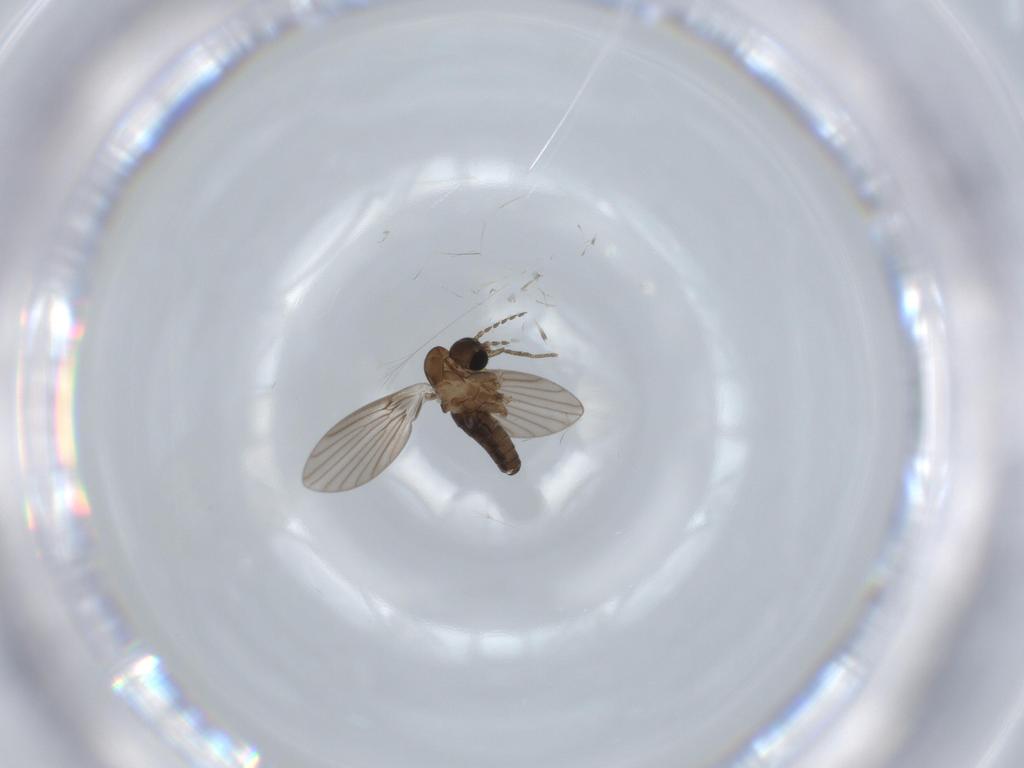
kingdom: Animalia
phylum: Arthropoda
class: Insecta
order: Diptera
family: Psychodidae
